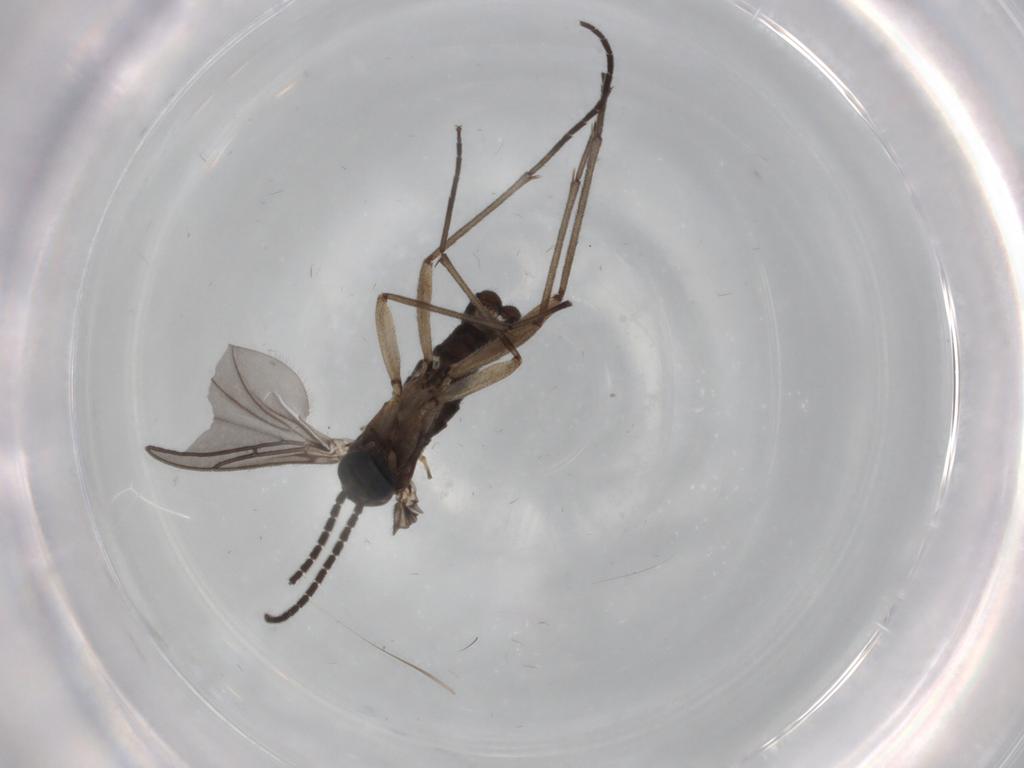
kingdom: Animalia
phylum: Arthropoda
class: Insecta
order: Diptera
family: Sciaridae
